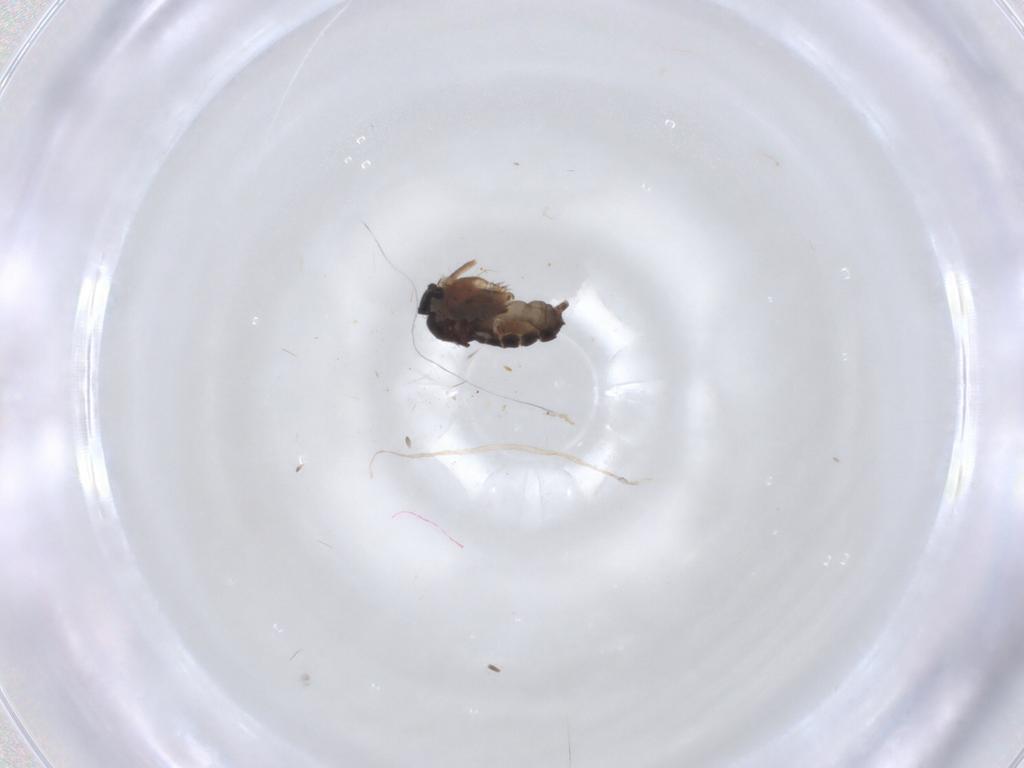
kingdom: Animalia
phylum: Arthropoda
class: Insecta
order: Diptera
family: Phoridae
